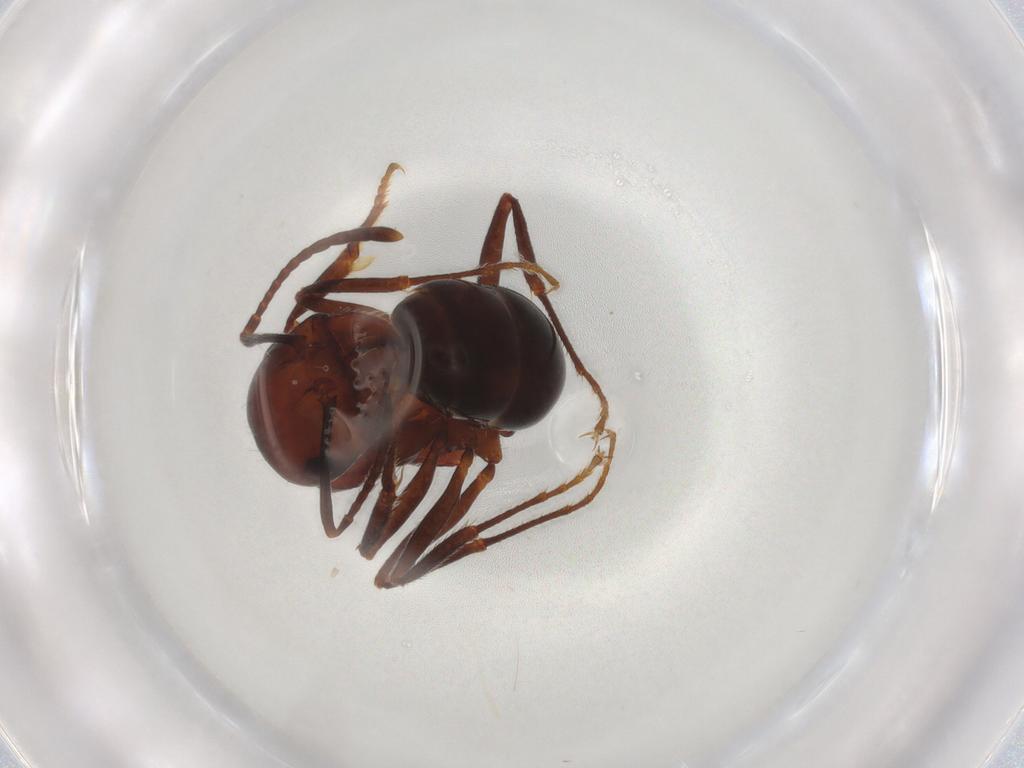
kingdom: Animalia
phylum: Arthropoda
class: Insecta
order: Hymenoptera
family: Formicidae
